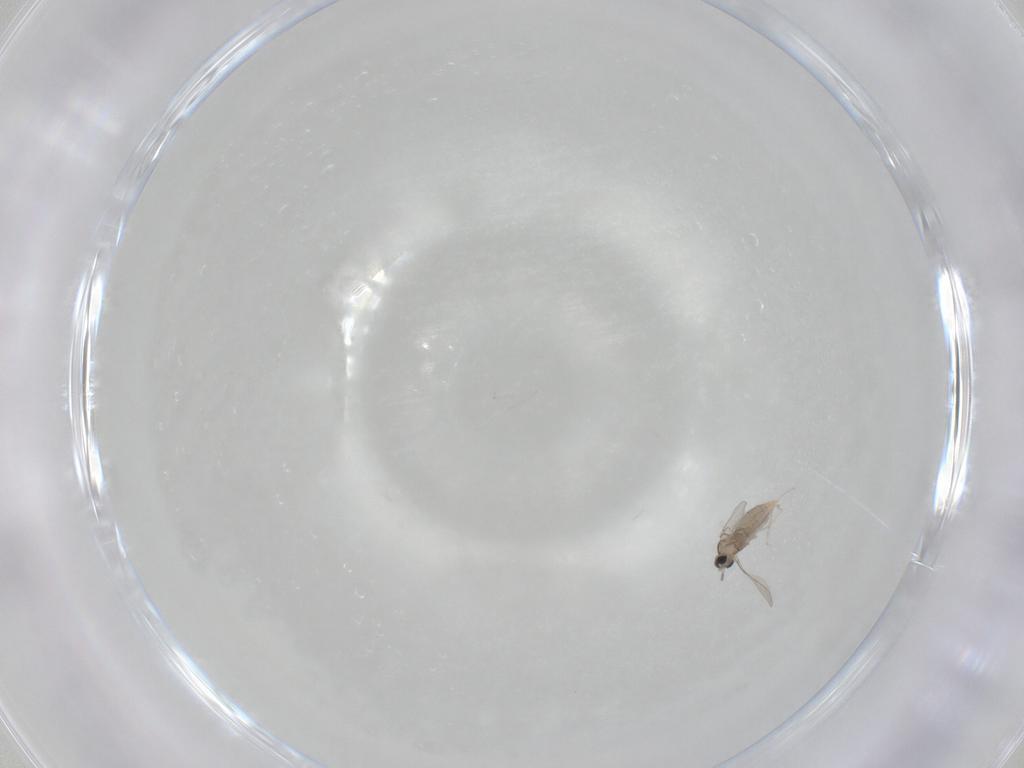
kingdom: Animalia
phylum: Arthropoda
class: Insecta
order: Diptera
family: Cecidomyiidae
